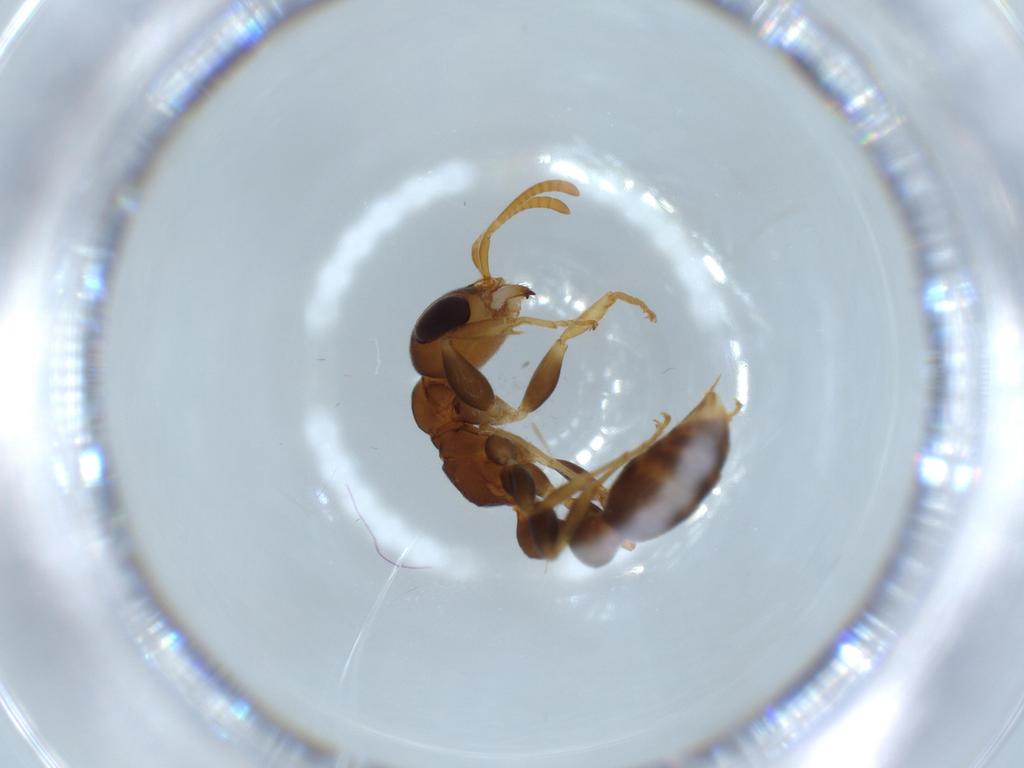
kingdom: Animalia
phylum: Arthropoda
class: Insecta
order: Hymenoptera
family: Formicidae
